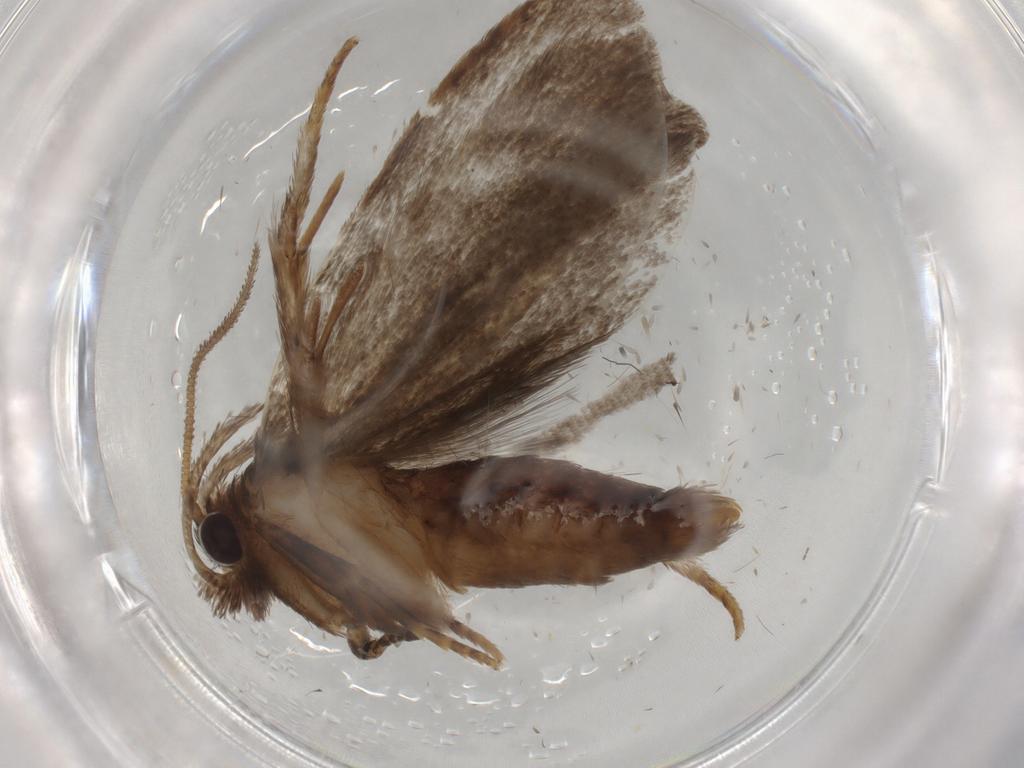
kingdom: Animalia
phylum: Arthropoda
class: Insecta
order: Lepidoptera
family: Tineidae
